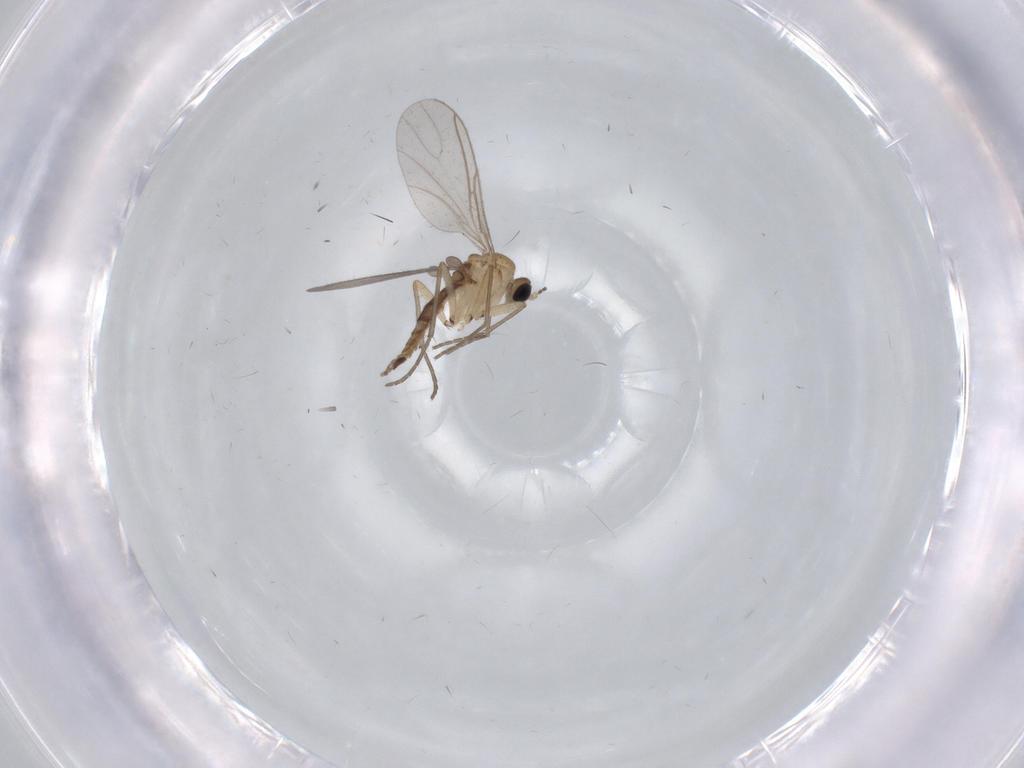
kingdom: Animalia
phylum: Arthropoda
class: Insecta
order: Diptera
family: Sciaridae
